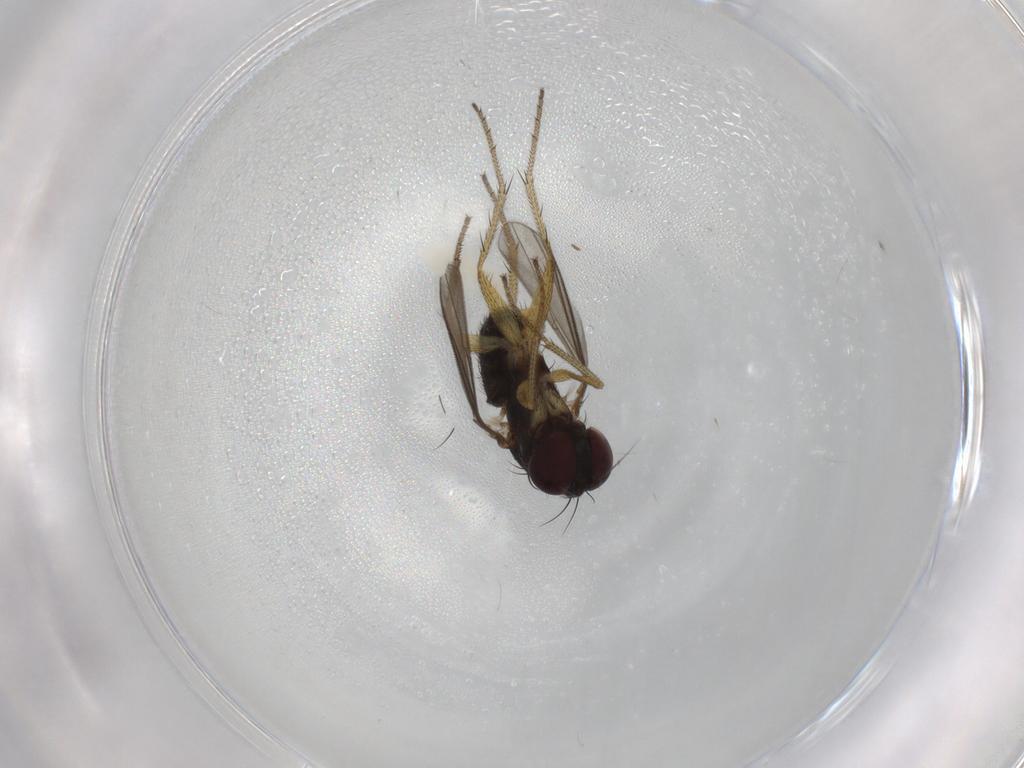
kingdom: Animalia
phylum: Arthropoda
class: Insecta
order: Diptera
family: Dolichopodidae
